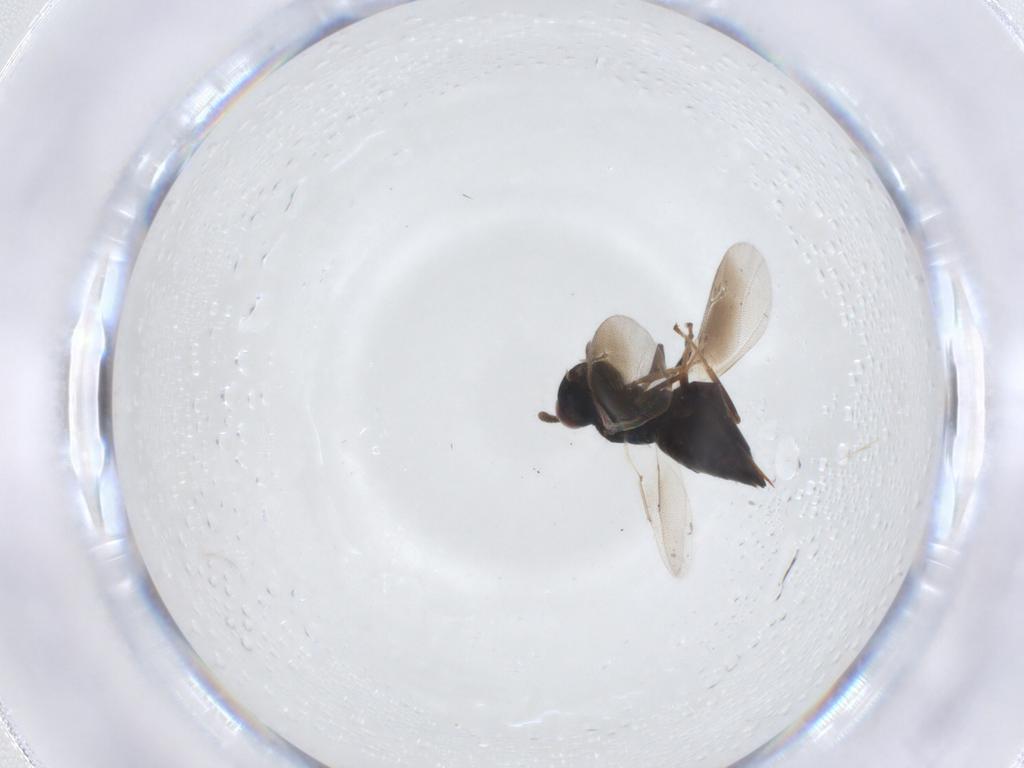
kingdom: Animalia
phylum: Arthropoda
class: Insecta
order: Hymenoptera
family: Pteromalidae
